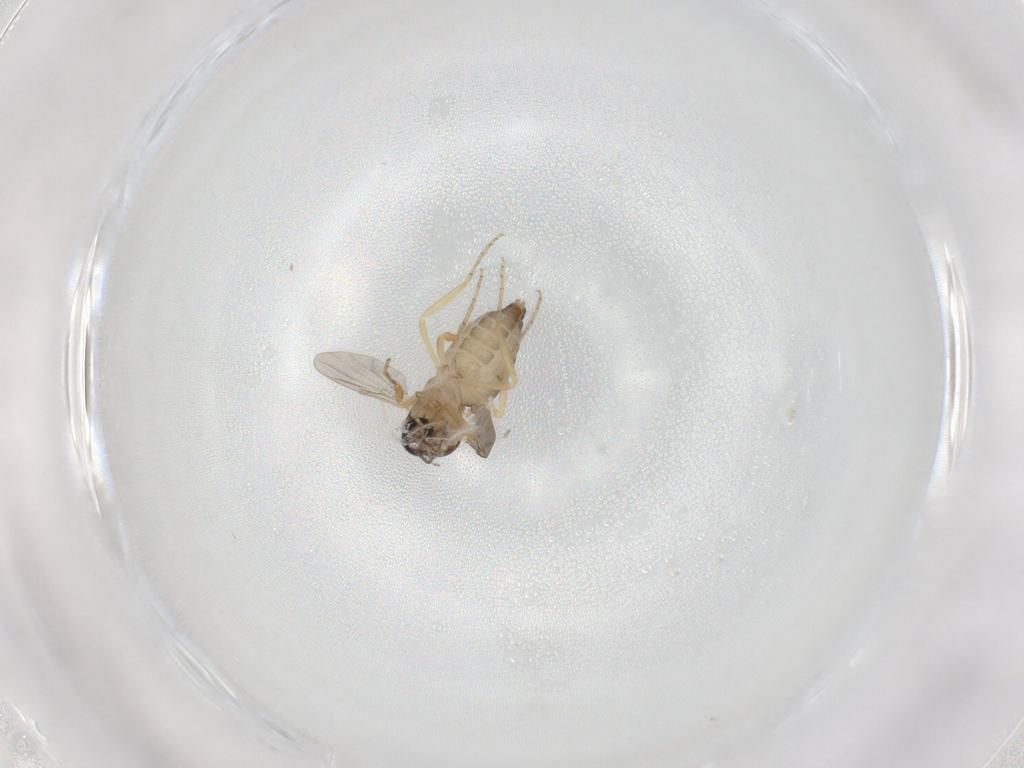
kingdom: Animalia
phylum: Arthropoda
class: Insecta
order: Diptera
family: Ceratopogonidae
